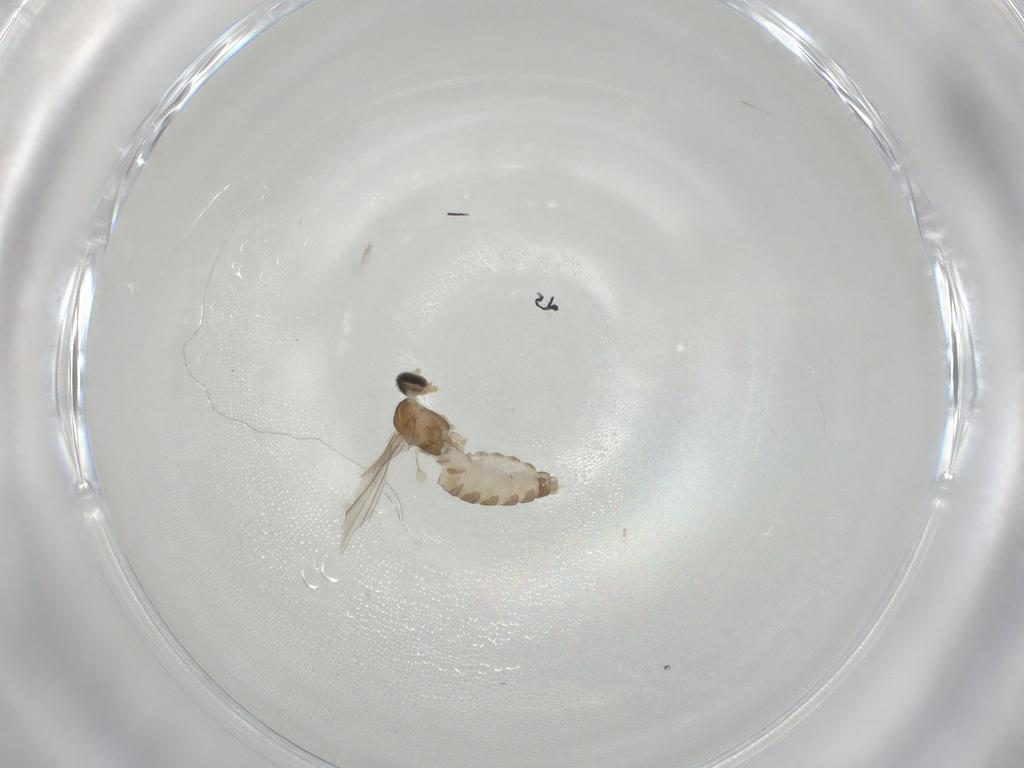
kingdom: Animalia
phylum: Arthropoda
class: Insecta
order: Diptera
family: Cecidomyiidae
